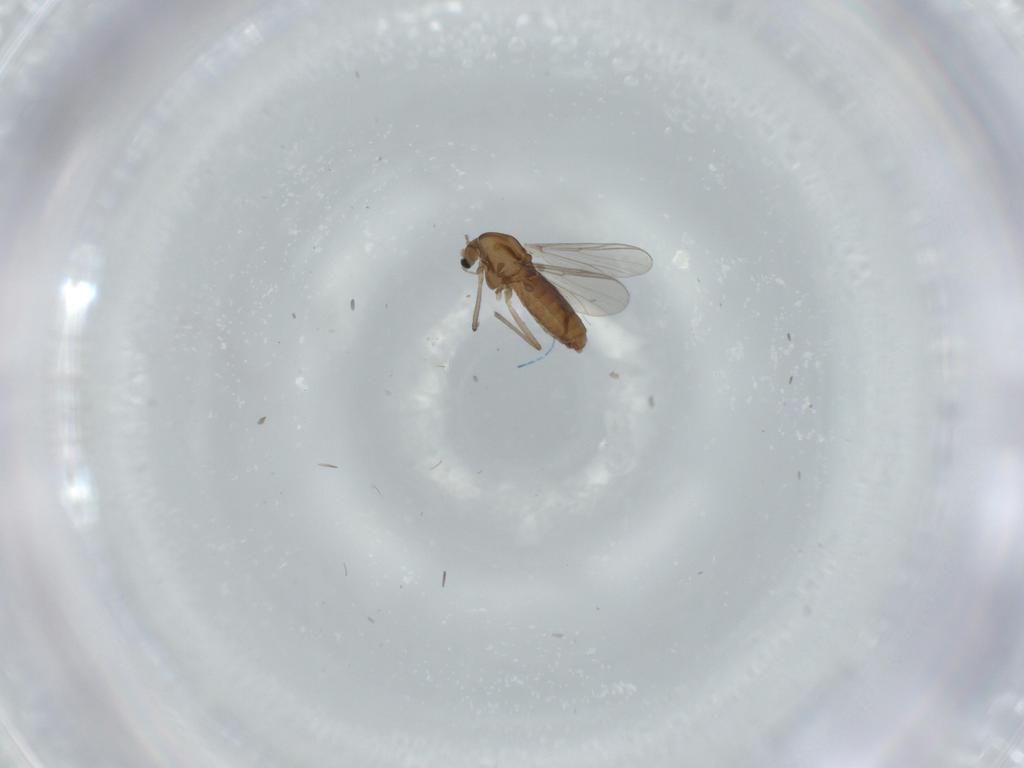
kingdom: Animalia
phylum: Arthropoda
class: Insecta
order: Diptera
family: Chironomidae
